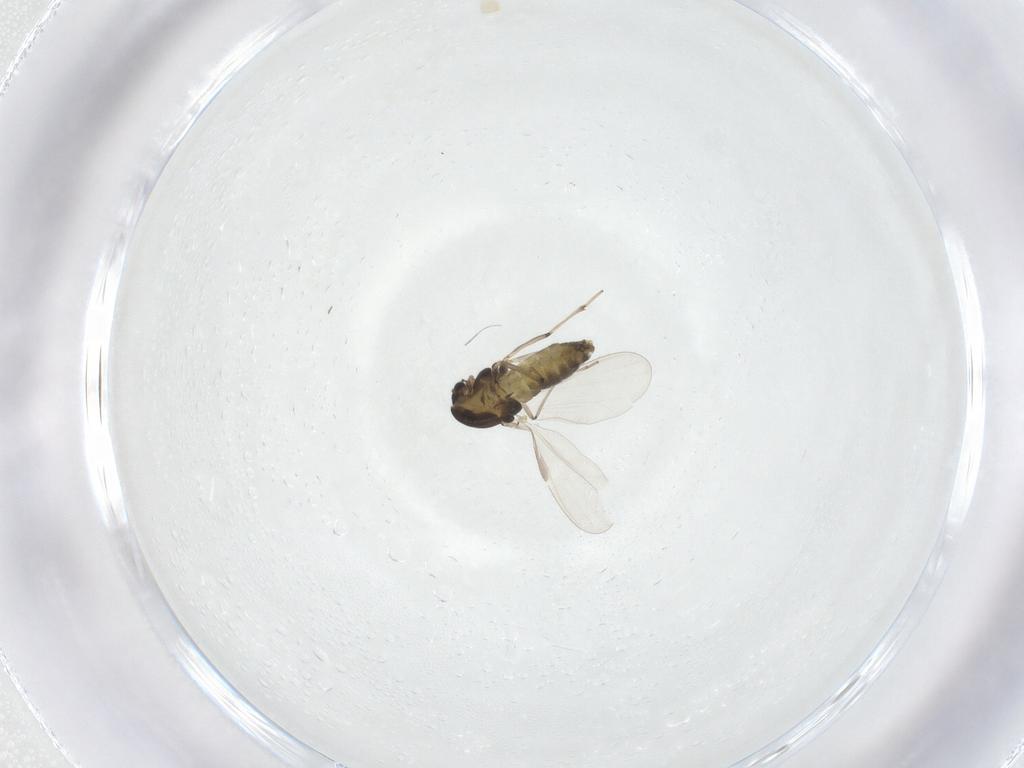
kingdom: Animalia
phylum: Arthropoda
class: Insecta
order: Diptera
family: Chironomidae
